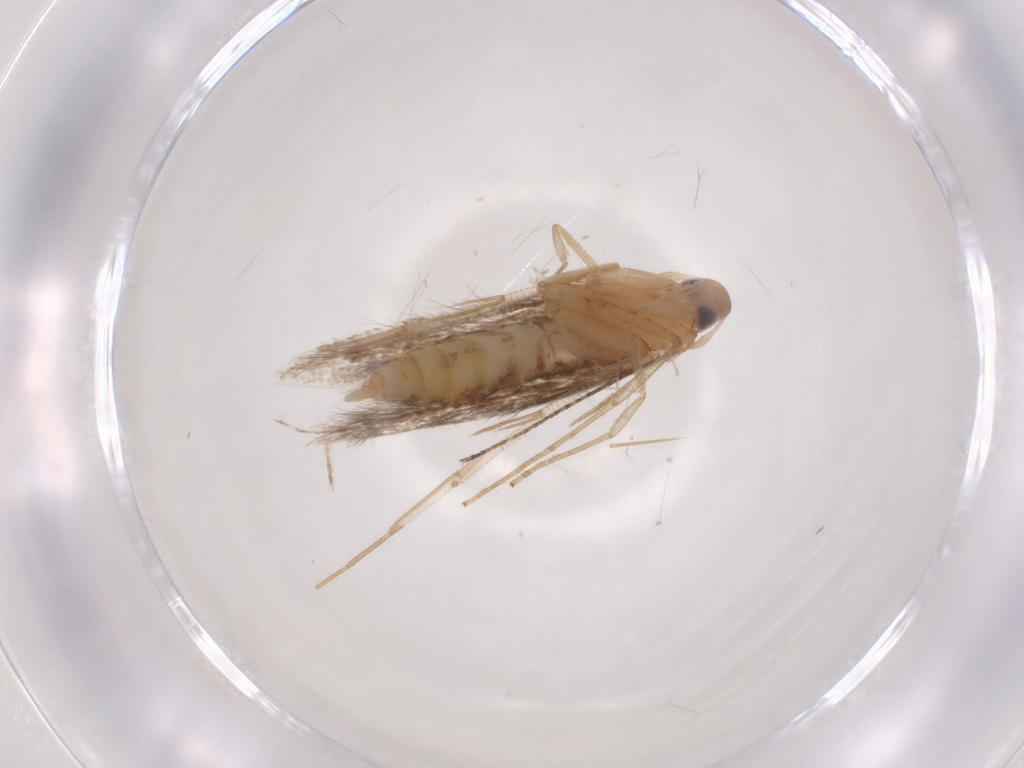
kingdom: Animalia
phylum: Arthropoda
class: Insecta
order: Lepidoptera
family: Cosmopterigidae
